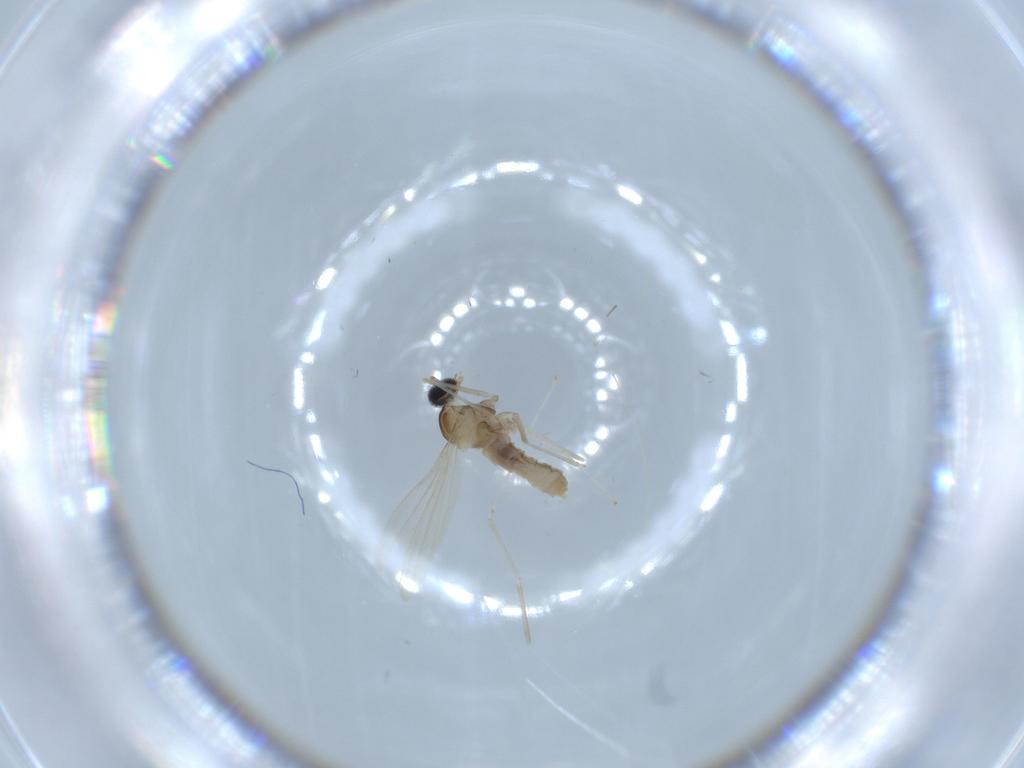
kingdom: Animalia
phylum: Arthropoda
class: Insecta
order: Diptera
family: Cecidomyiidae
